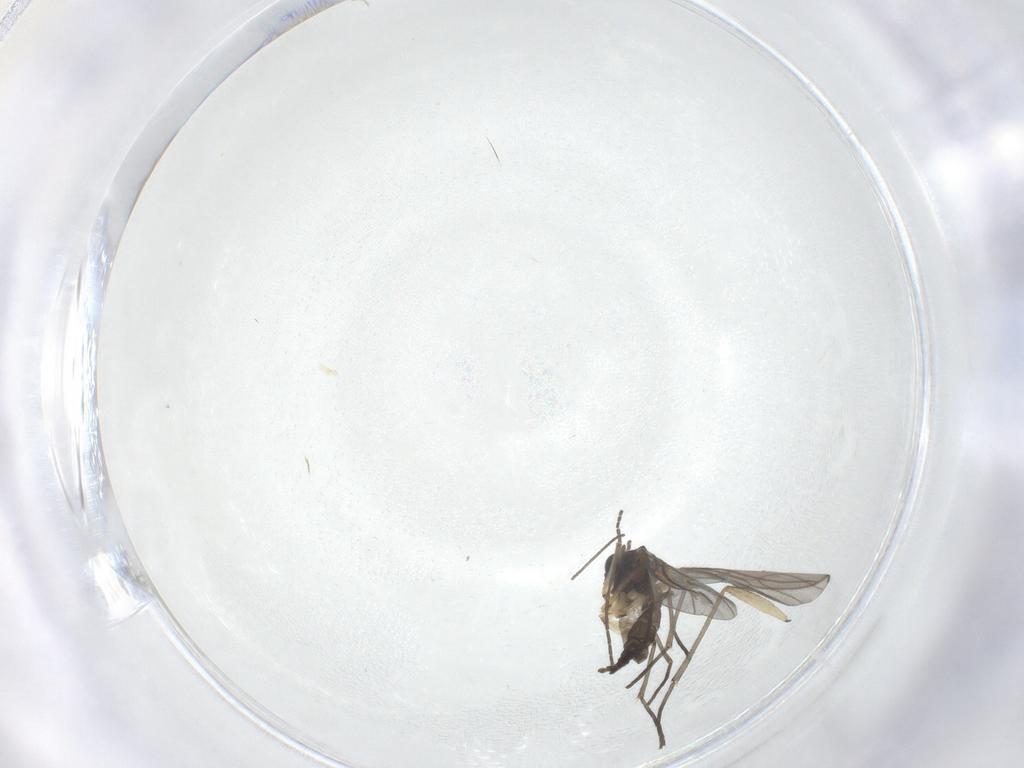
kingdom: Animalia
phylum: Arthropoda
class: Insecta
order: Diptera
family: Sciaridae
